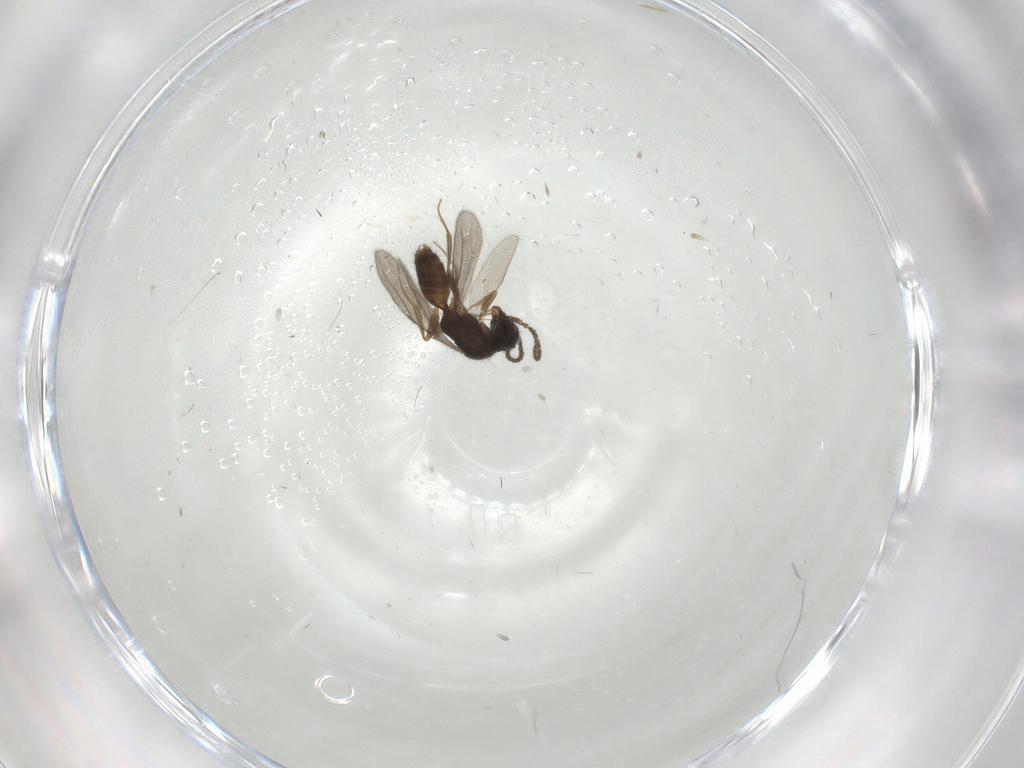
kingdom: Animalia
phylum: Arthropoda
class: Insecta
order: Hymenoptera
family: Bethylidae
